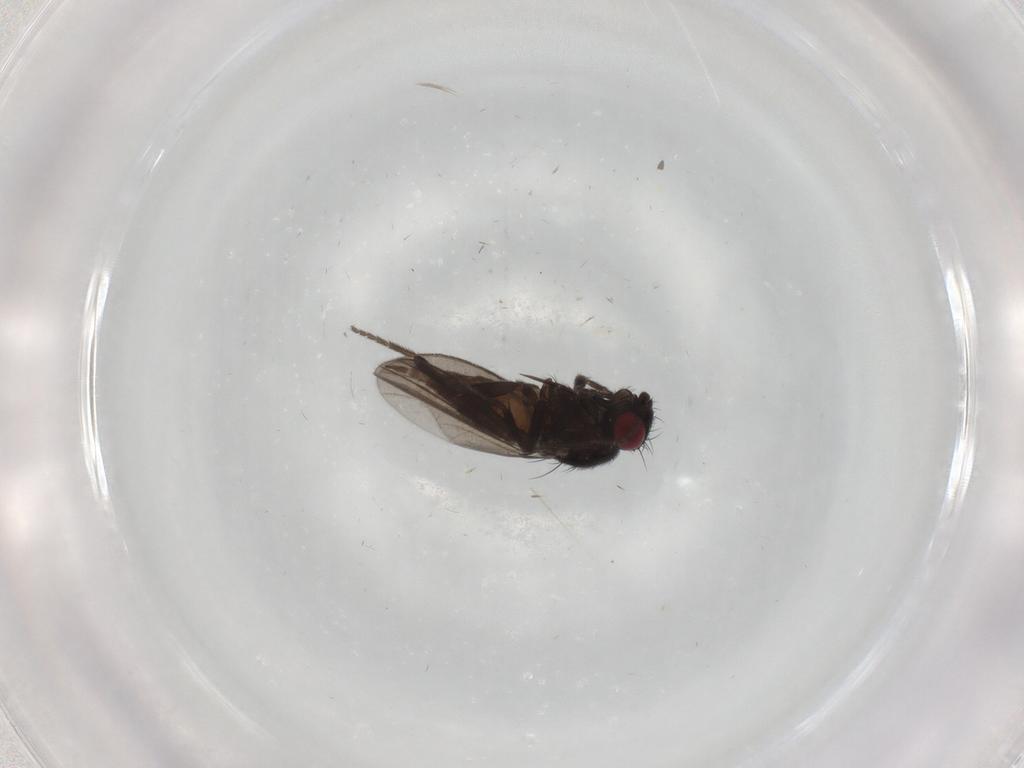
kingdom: Animalia
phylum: Arthropoda
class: Insecta
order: Diptera
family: Milichiidae
